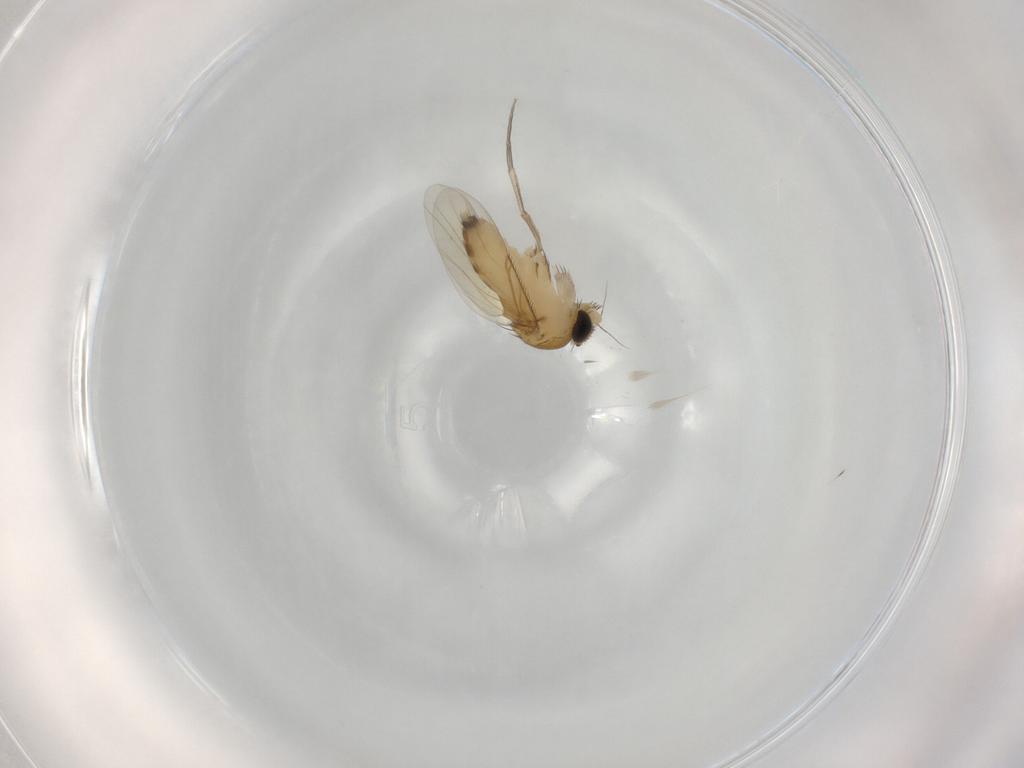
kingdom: Animalia
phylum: Arthropoda
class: Insecta
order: Diptera
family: Phoridae
